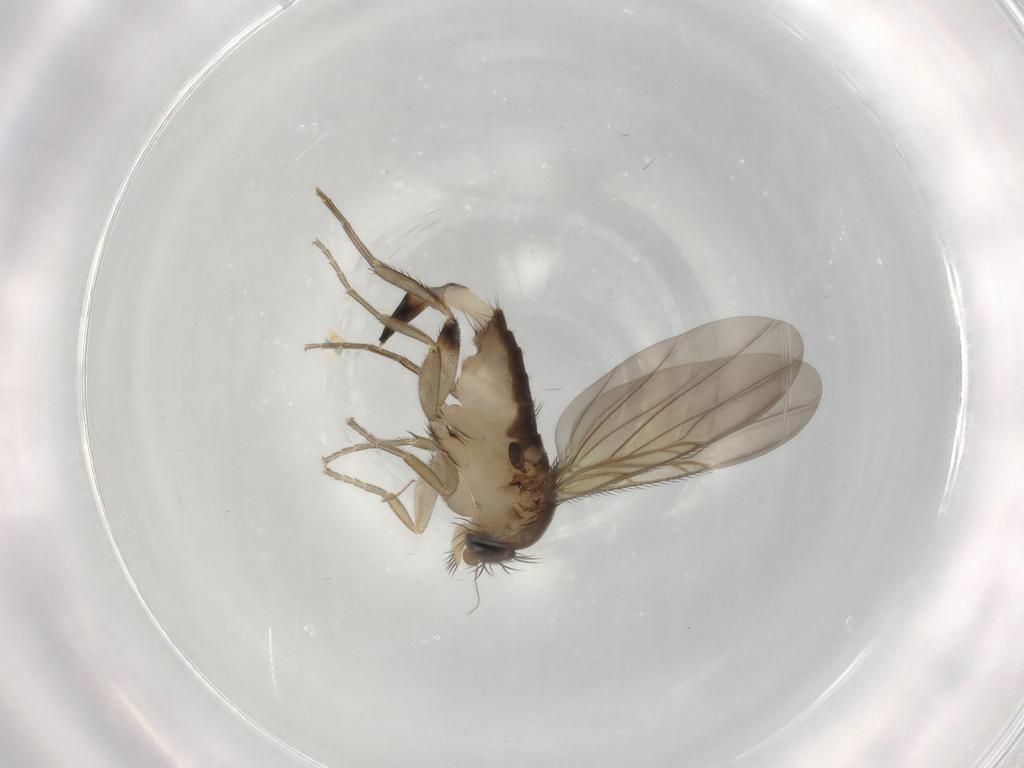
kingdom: Animalia
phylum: Arthropoda
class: Insecta
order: Diptera
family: Phoridae
